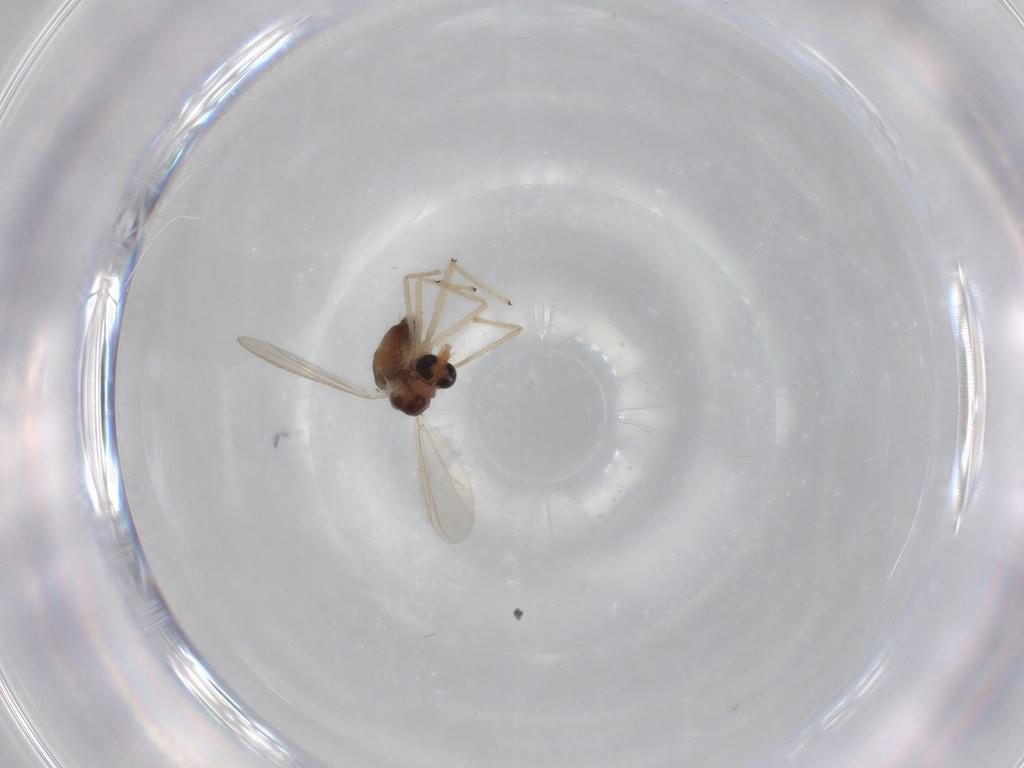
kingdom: Animalia
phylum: Arthropoda
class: Insecta
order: Diptera
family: Chironomidae
